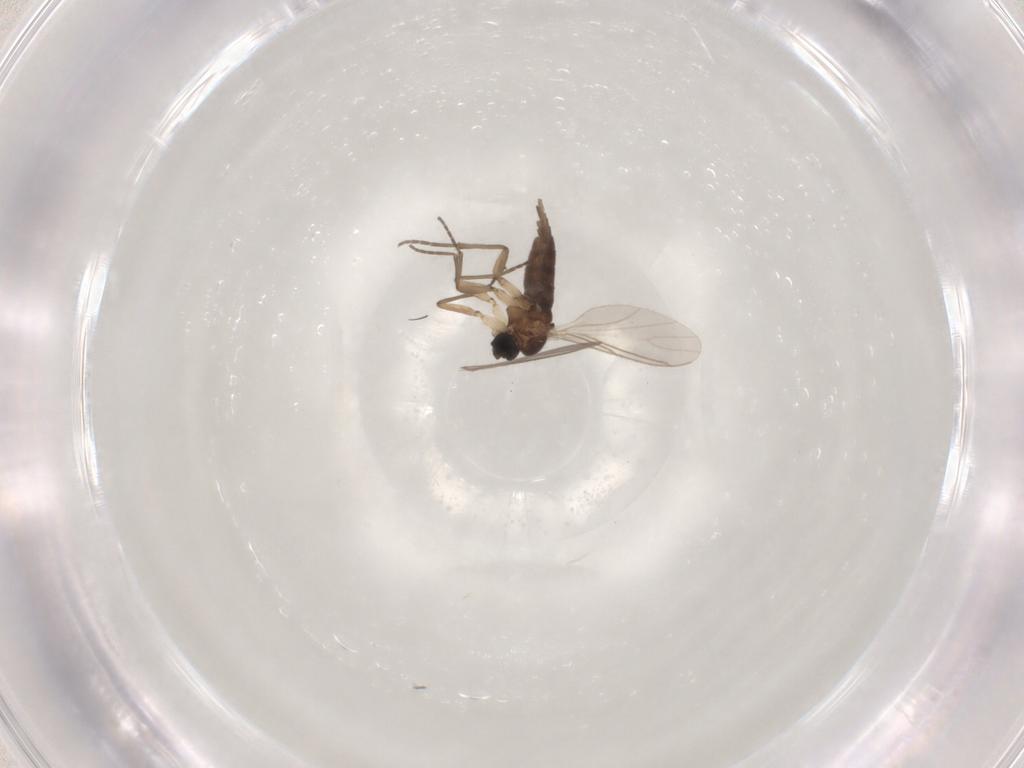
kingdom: Animalia
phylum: Arthropoda
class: Insecta
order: Diptera
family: Sciaridae
